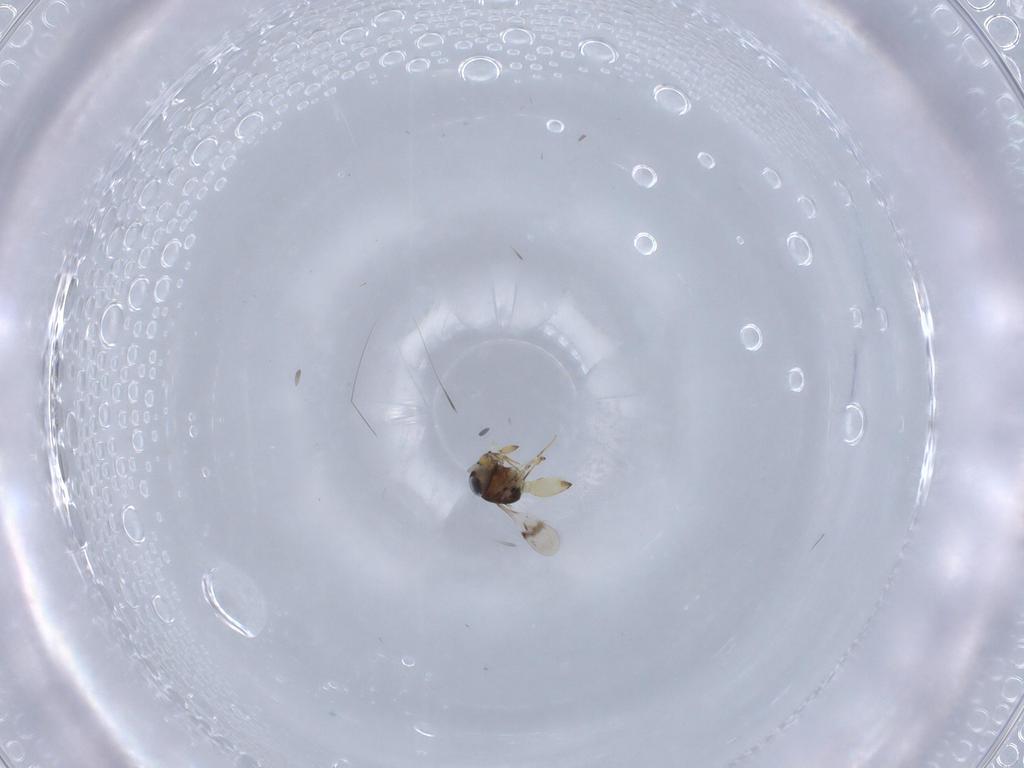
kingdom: Animalia
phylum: Arthropoda
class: Insecta
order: Hymenoptera
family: Scelionidae
